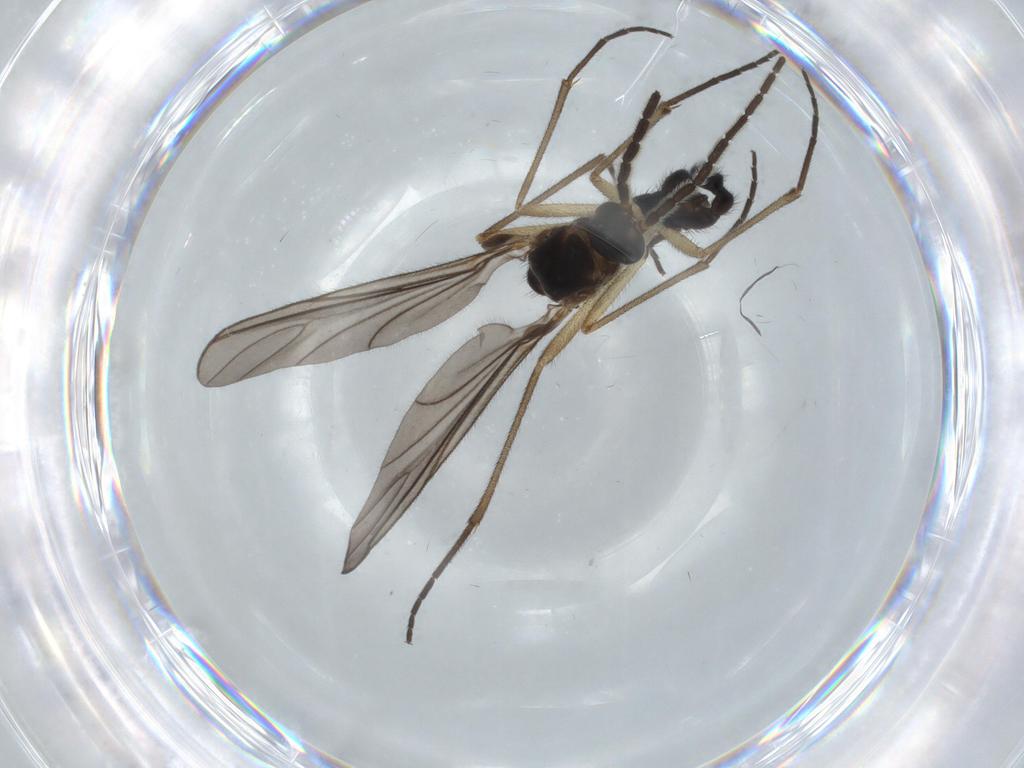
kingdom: Animalia
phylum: Arthropoda
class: Insecta
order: Diptera
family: Sciaridae
